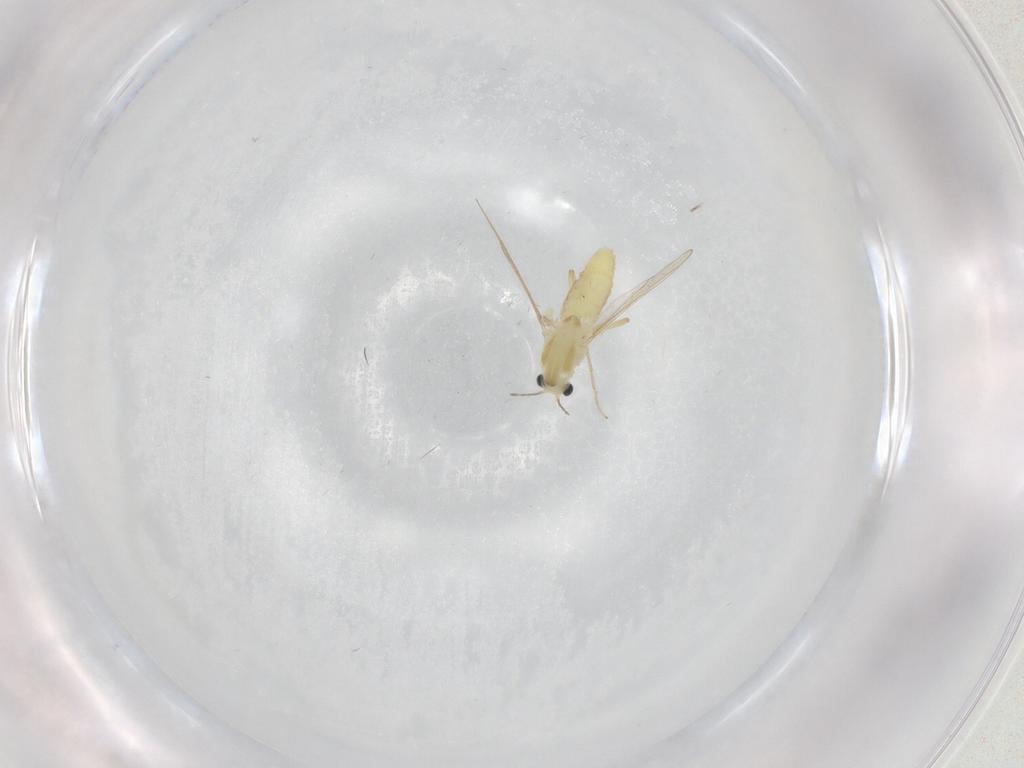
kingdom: Animalia
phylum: Arthropoda
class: Insecta
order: Diptera
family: Chironomidae
